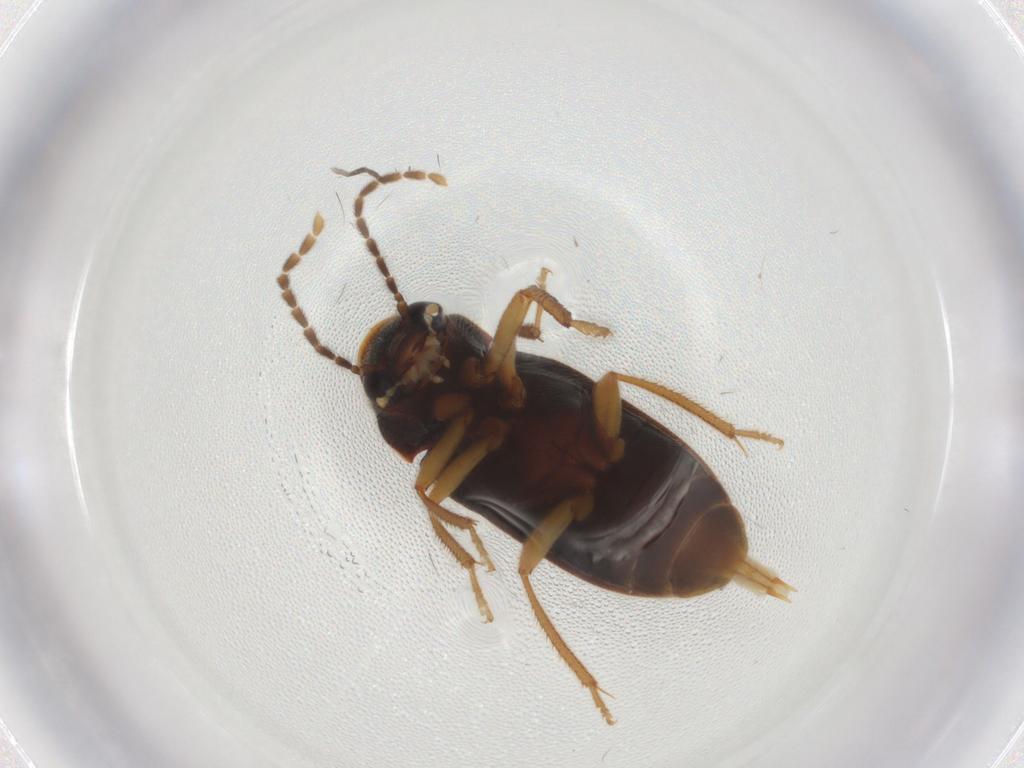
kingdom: Animalia
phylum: Arthropoda
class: Insecta
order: Coleoptera
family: Ptilodactylidae
